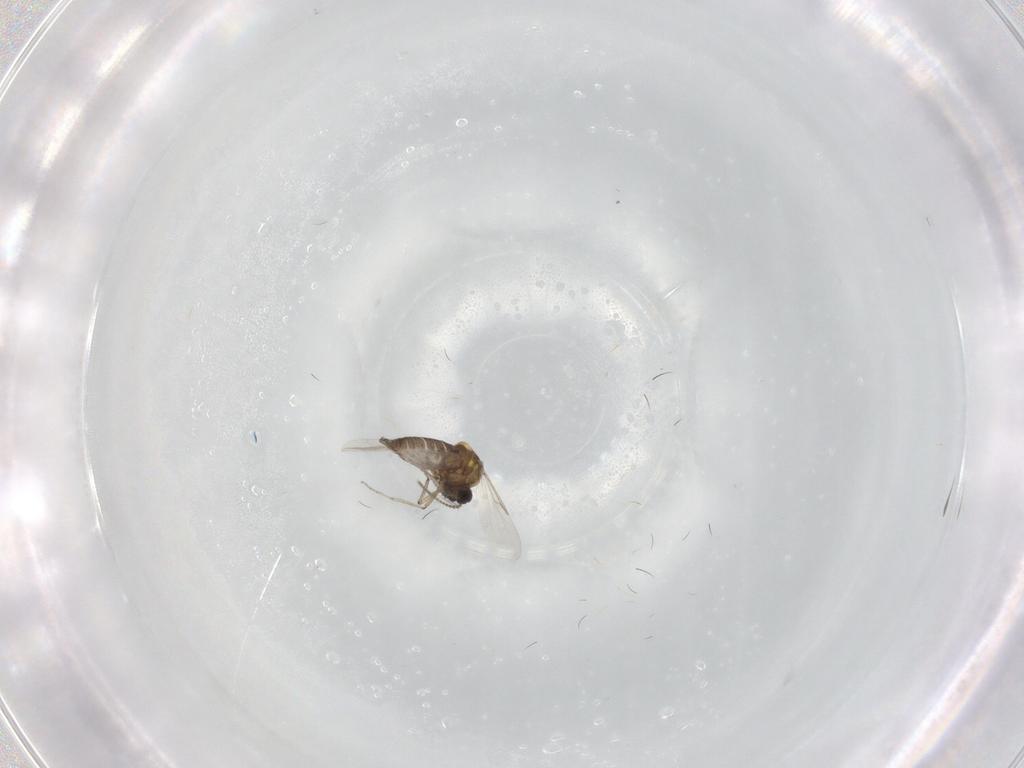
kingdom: Animalia
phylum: Arthropoda
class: Insecta
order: Diptera
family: Ceratopogonidae
